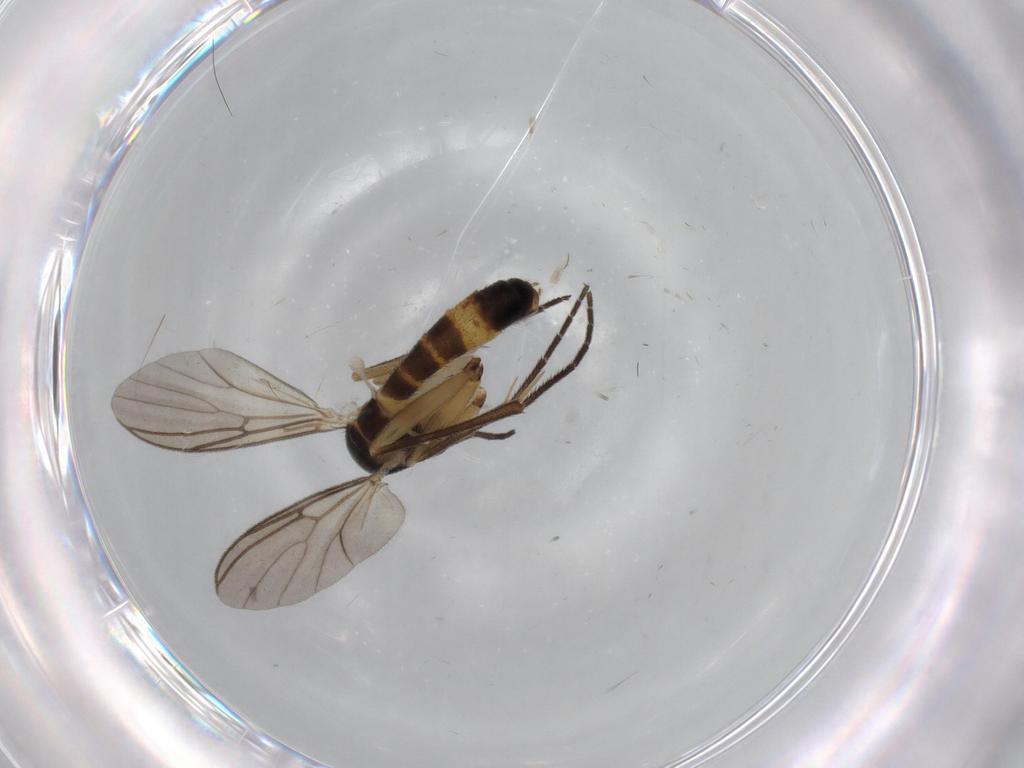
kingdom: Animalia
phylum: Arthropoda
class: Insecta
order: Diptera
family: Mycetophilidae
